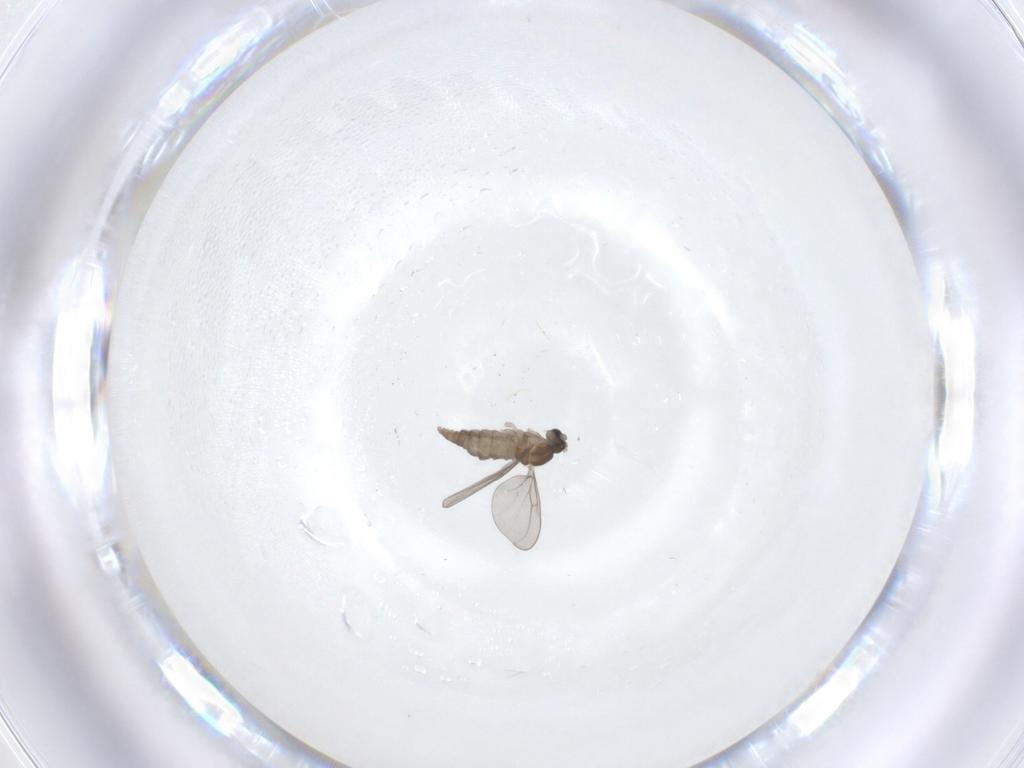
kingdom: Animalia
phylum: Arthropoda
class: Insecta
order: Diptera
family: Cecidomyiidae
